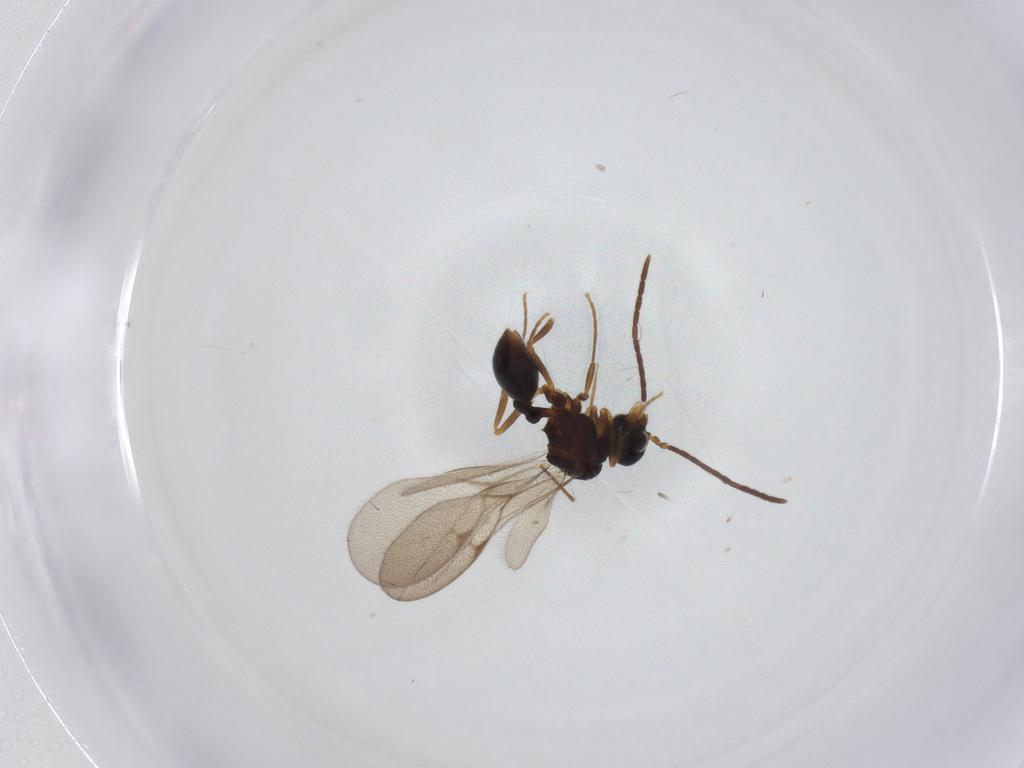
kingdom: Animalia
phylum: Arthropoda
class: Insecta
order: Hymenoptera
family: Formicidae
